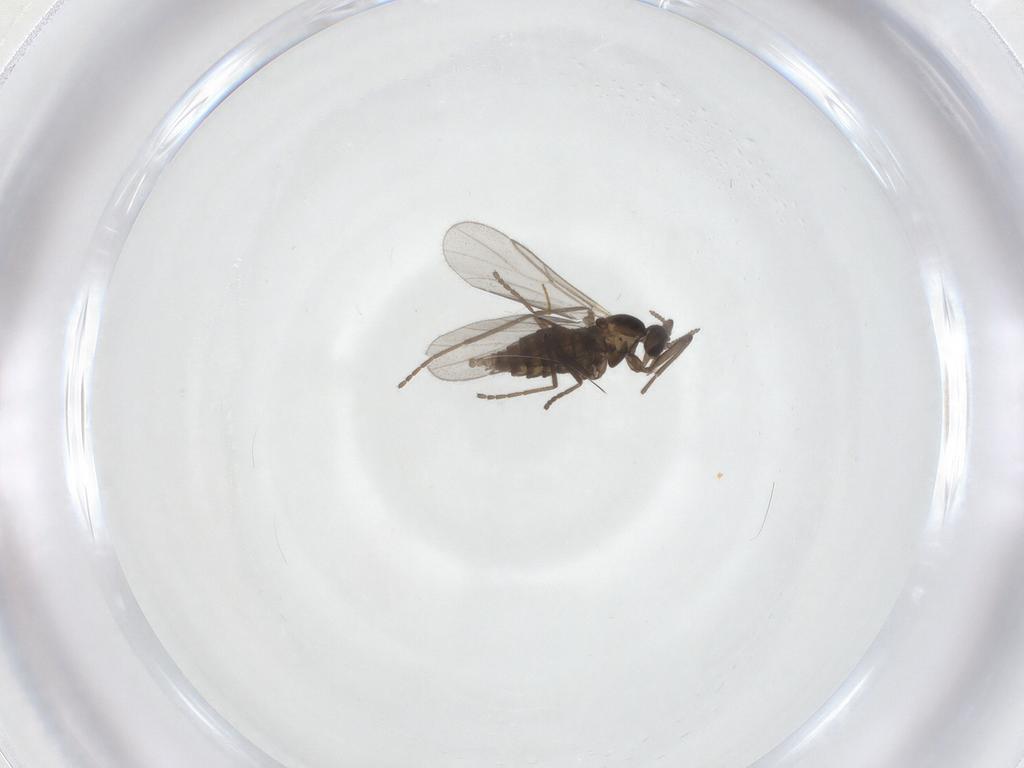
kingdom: Animalia
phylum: Arthropoda
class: Insecta
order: Diptera
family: Cecidomyiidae
